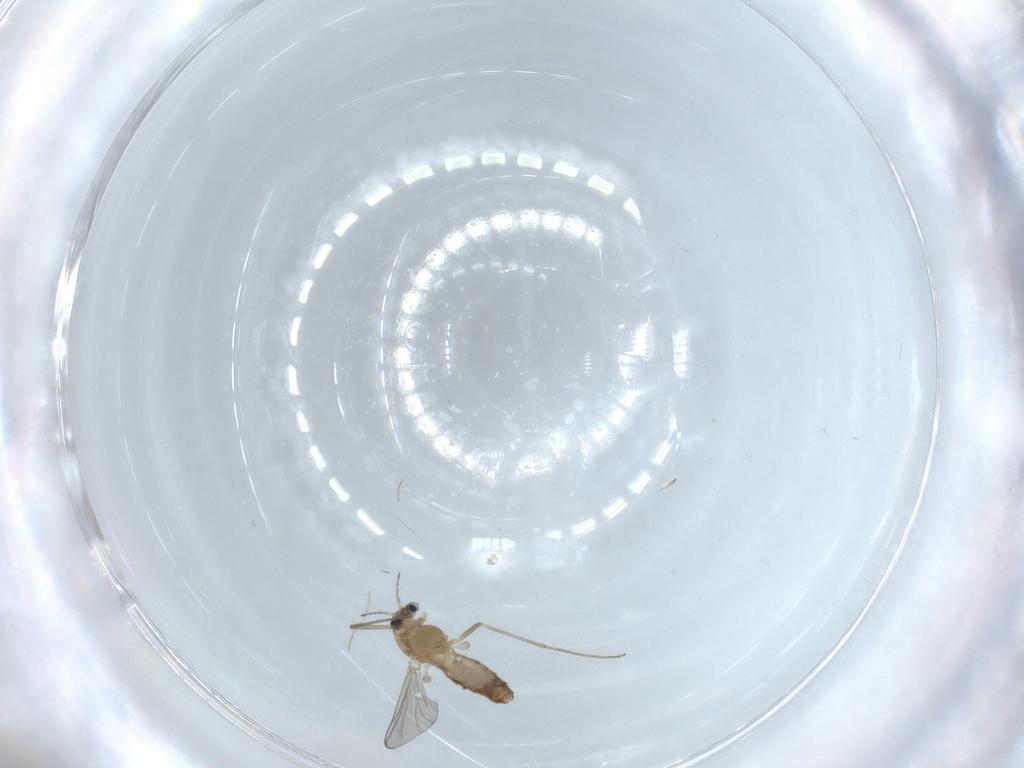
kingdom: Animalia
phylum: Arthropoda
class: Insecta
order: Diptera
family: Chironomidae
